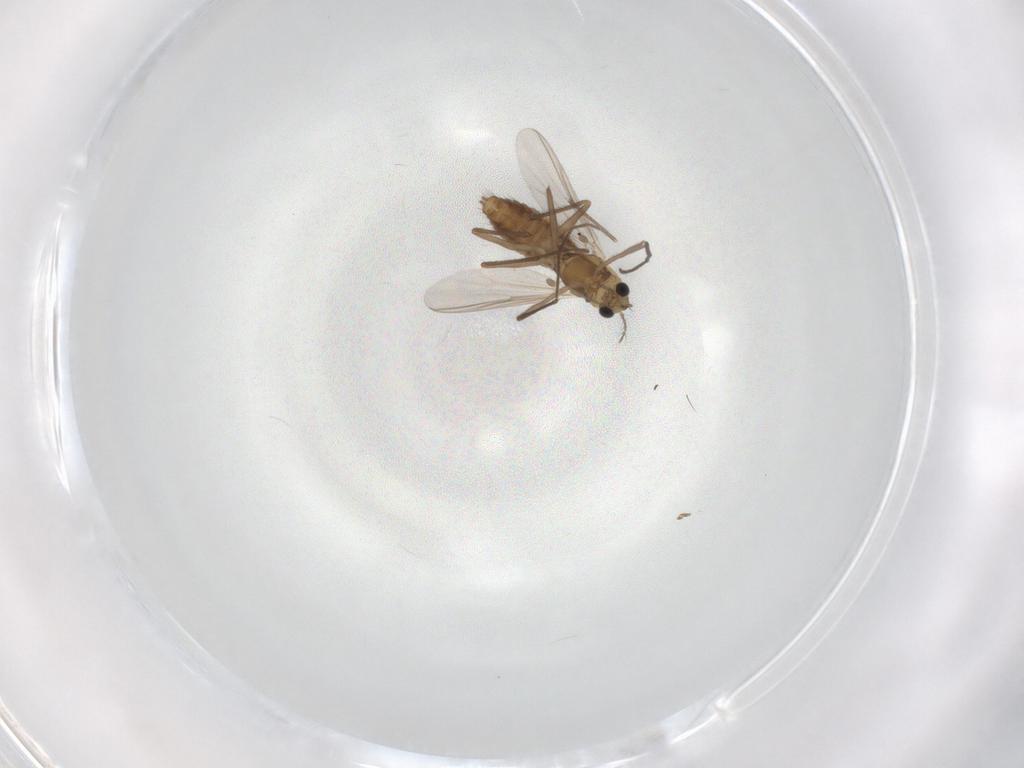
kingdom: Animalia
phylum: Arthropoda
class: Insecta
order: Diptera
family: Chironomidae
